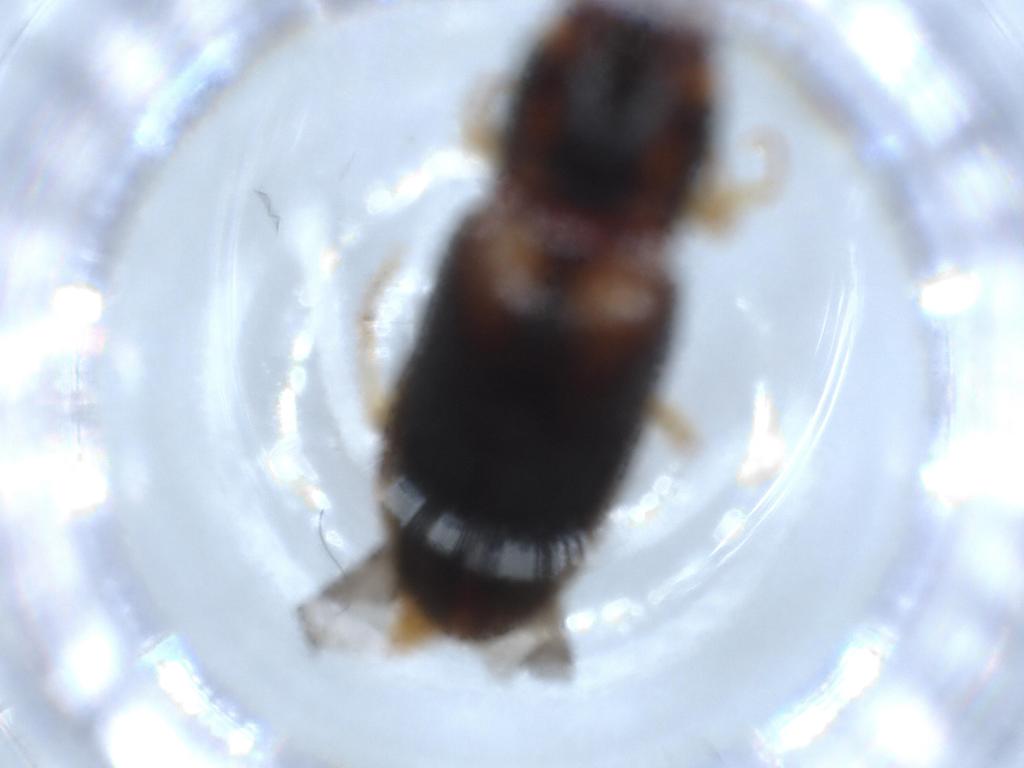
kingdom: Animalia
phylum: Arthropoda
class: Insecta
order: Coleoptera
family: Elateridae
